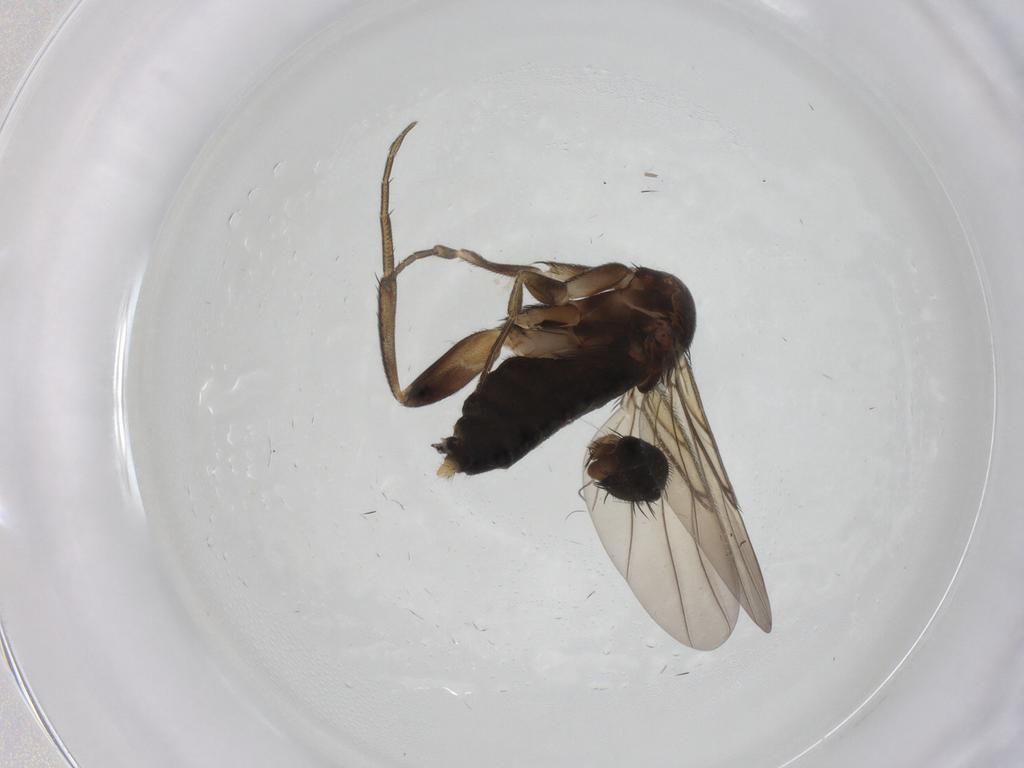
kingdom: Animalia
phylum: Arthropoda
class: Insecta
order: Diptera
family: Phoridae
